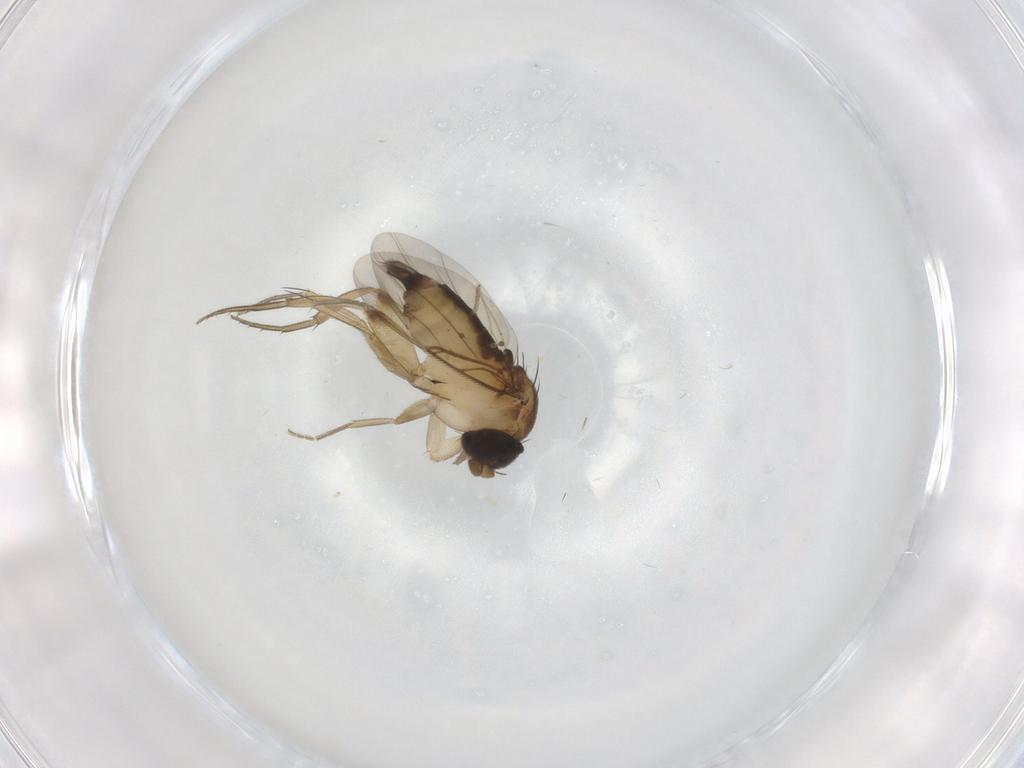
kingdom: Animalia
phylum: Arthropoda
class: Insecta
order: Diptera
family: Phoridae
